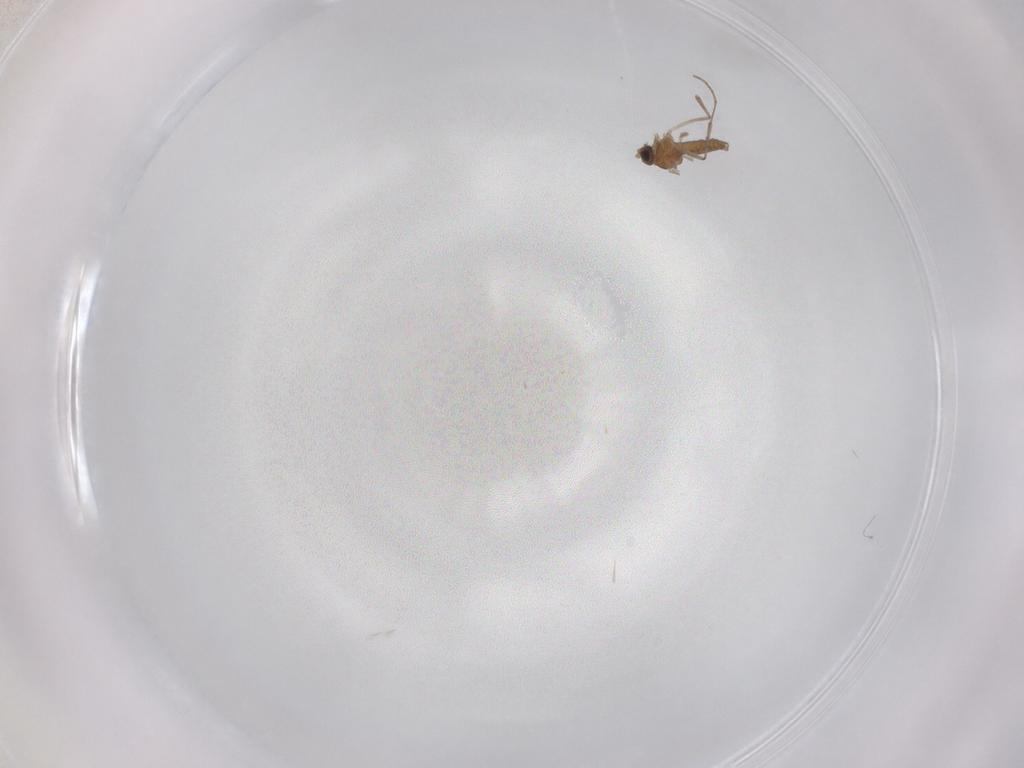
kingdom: Animalia
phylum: Arthropoda
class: Insecta
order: Diptera
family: Cecidomyiidae
